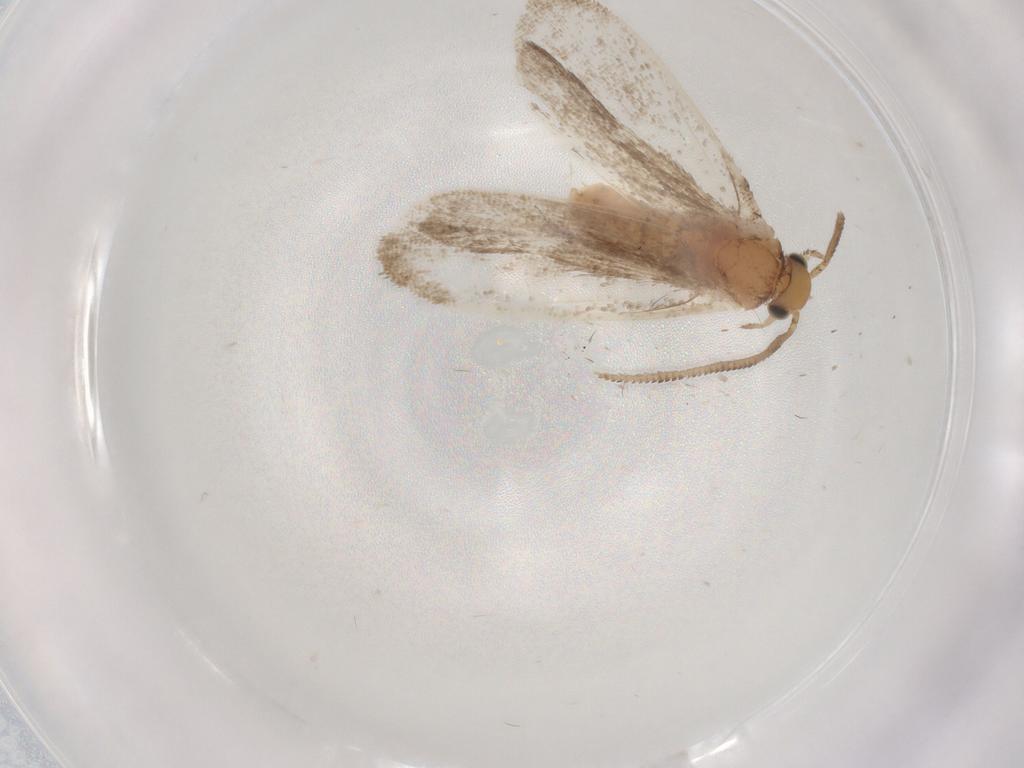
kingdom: Animalia
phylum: Arthropoda
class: Insecta
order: Lepidoptera
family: Dryadaulidae
